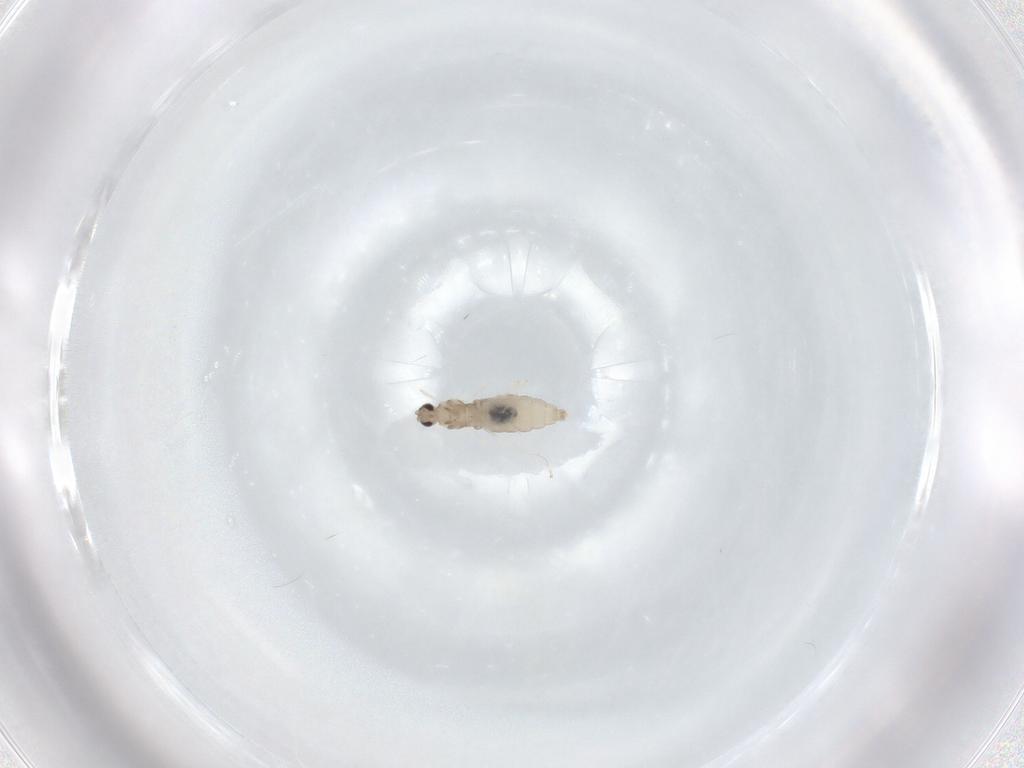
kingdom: Animalia
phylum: Arthropoda
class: Insecta
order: Diptera
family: Cecidomyiidae
